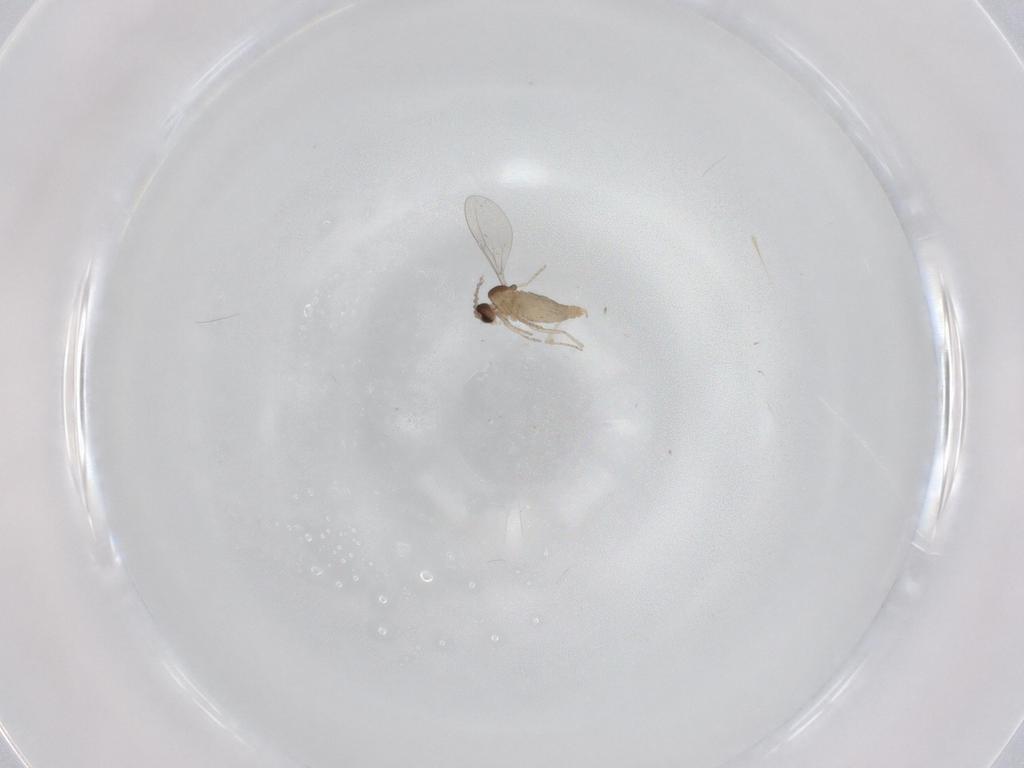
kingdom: Animalia
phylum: Arthropoda
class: Insecta
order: Diptera
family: Cecidomyiidae
